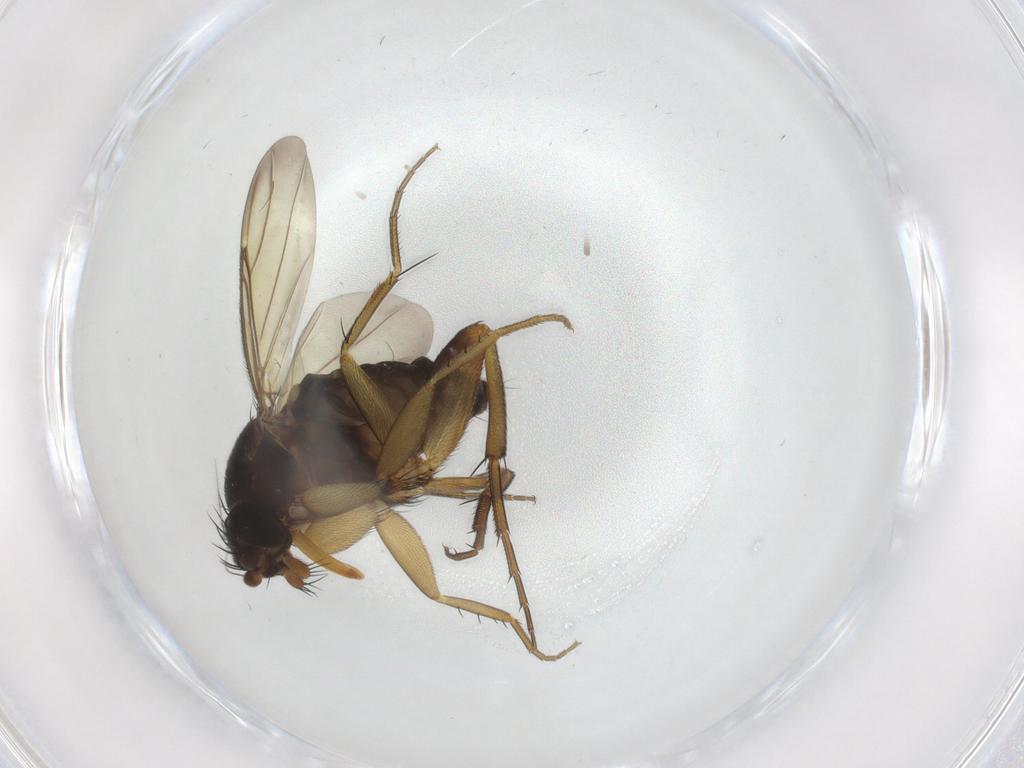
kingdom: Animalia
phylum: Arthropoda
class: Insecta
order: Diptera
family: Phoridae
